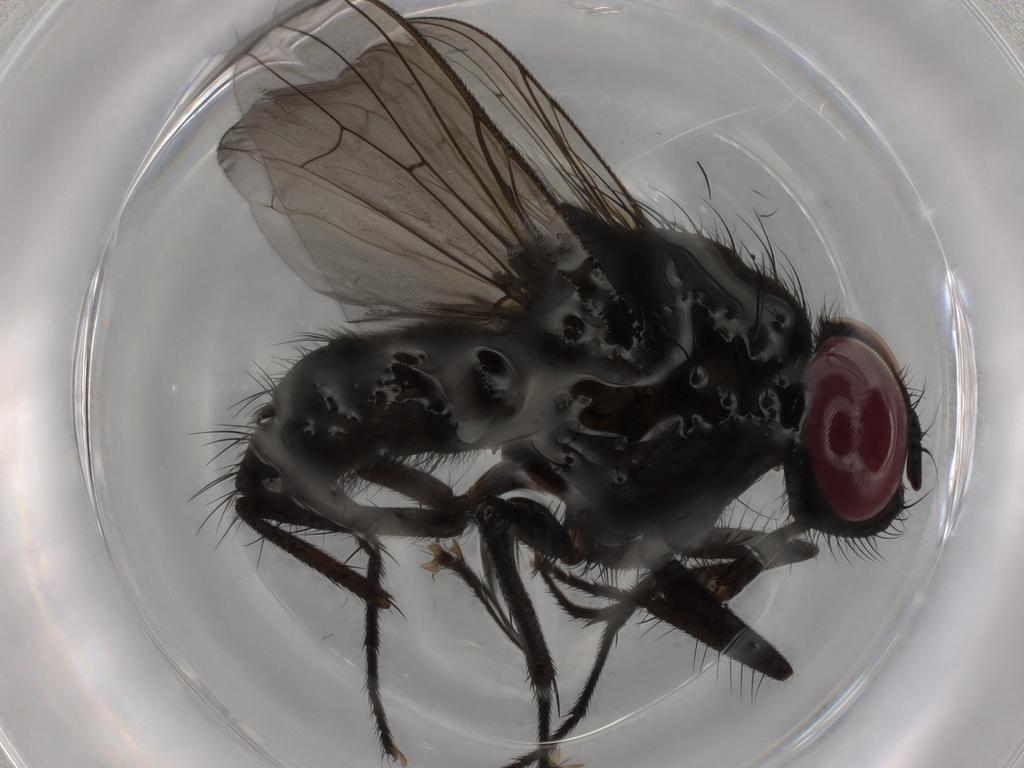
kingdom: Animalia
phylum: Arthropoda
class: Insecta
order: Diptera
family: Muscidae
